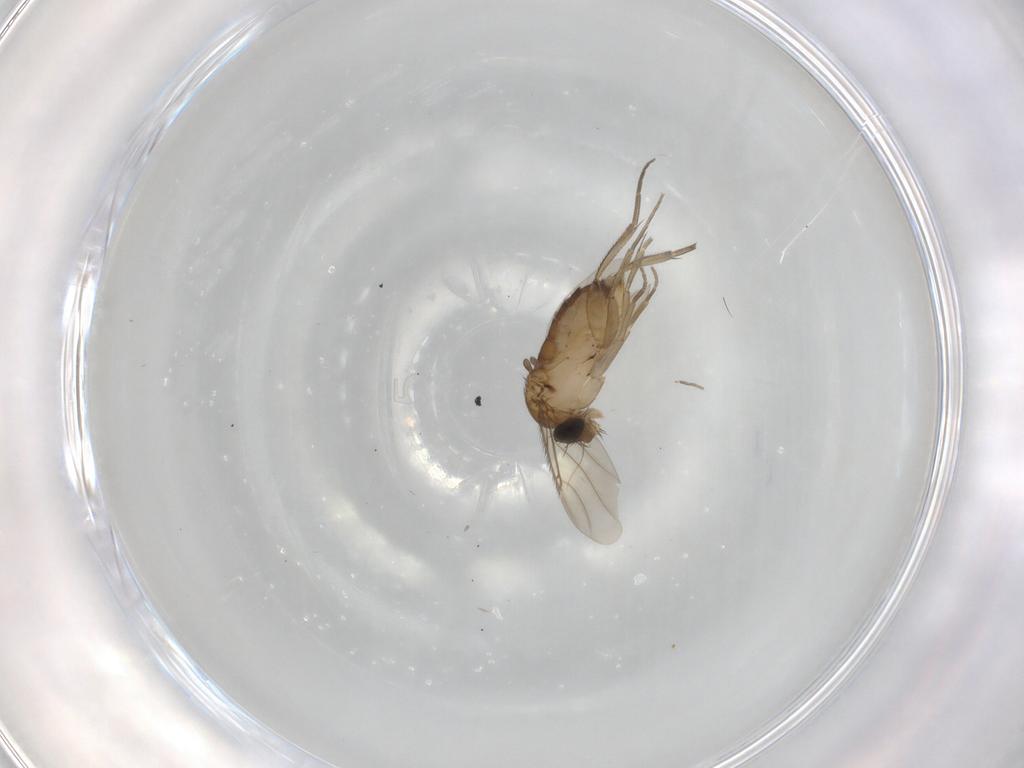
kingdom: Animalia
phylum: Arthropoda
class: Insecta
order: Diptera
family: Phoridae
